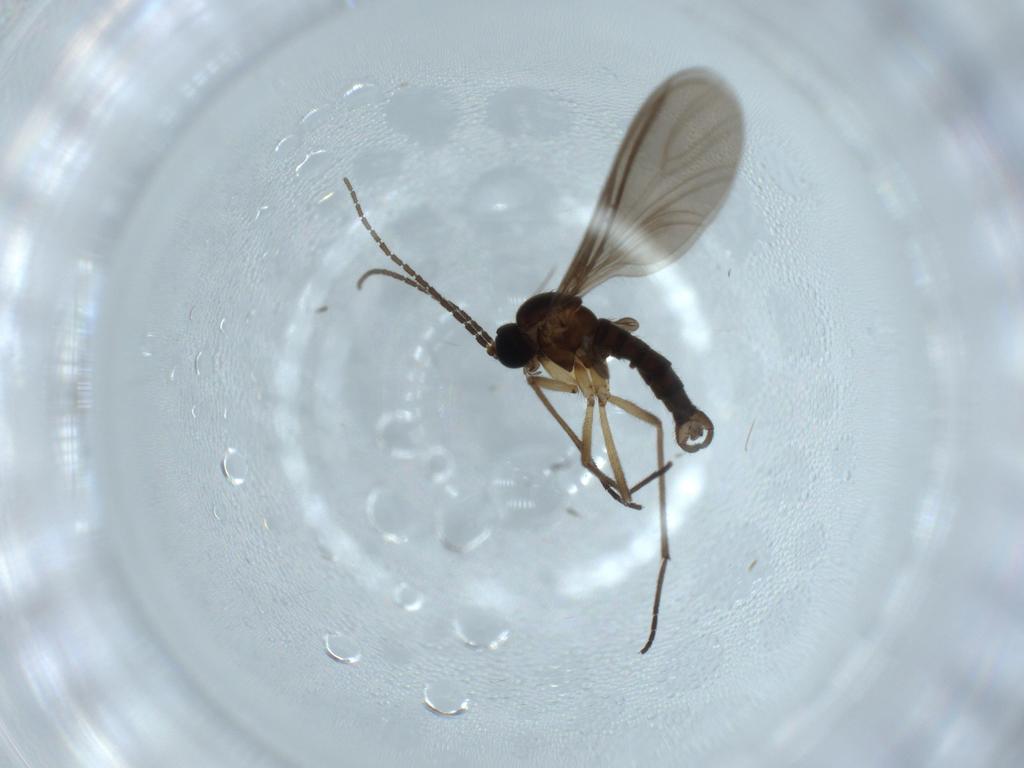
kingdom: Animalia
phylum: Arthropoda
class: Insecta
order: Diptera
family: Sciaridae
